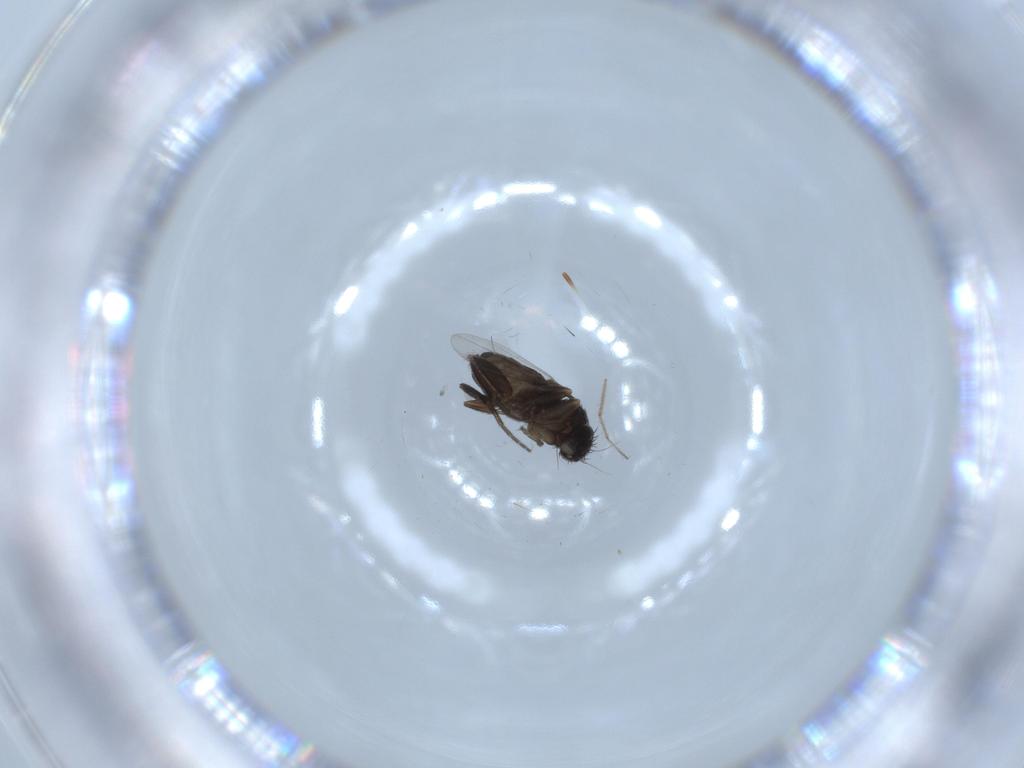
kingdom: Animalia
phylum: Arthropoda
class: Insecta
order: Diptera
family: Phoridae
